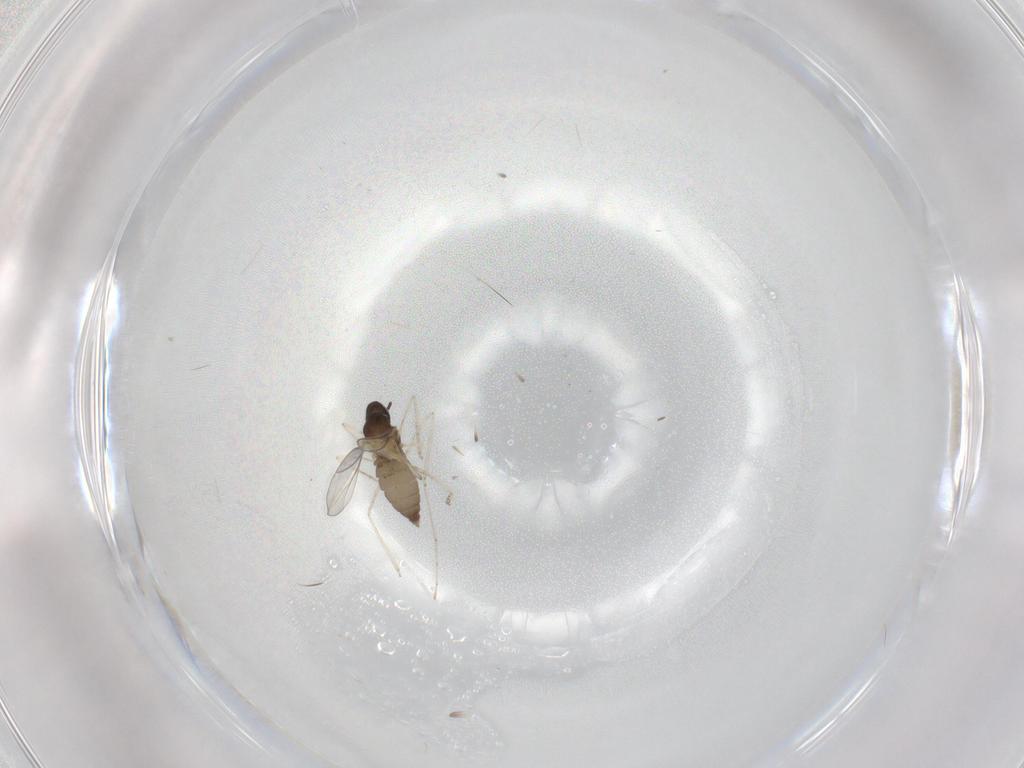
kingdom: Animalia
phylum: Arthropoda
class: Insecta
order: Diptera
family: Cecidomyiidae
